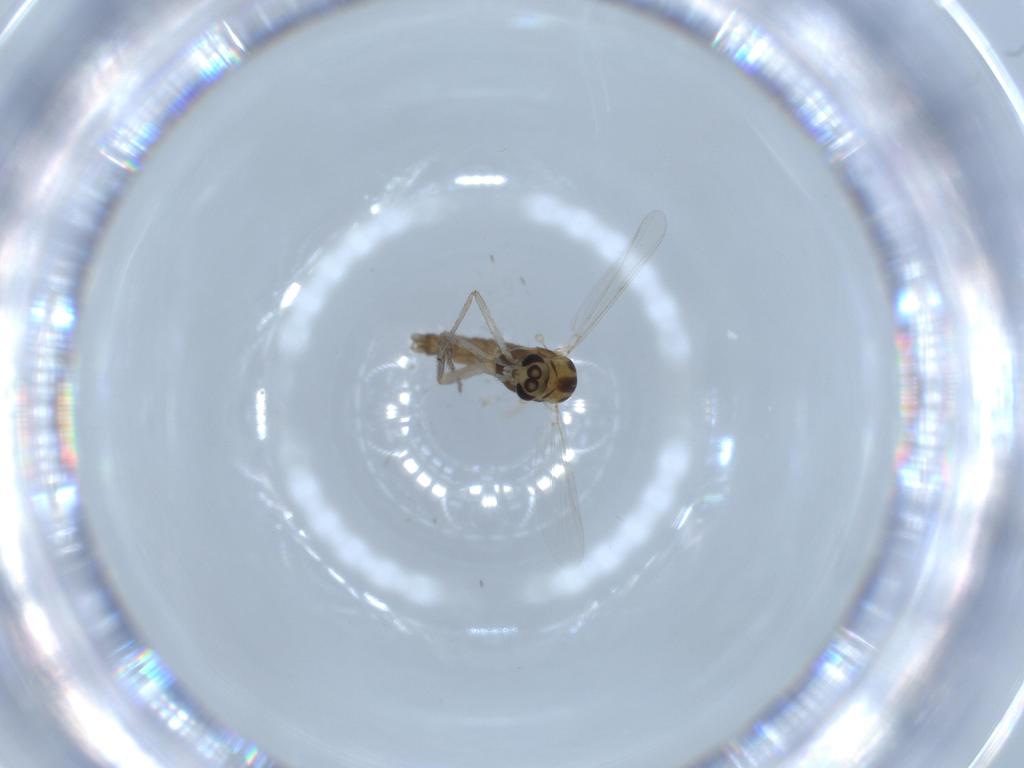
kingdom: Animalia
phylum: Arthropoda
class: Insecta
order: Diptera
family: Chironomidae
